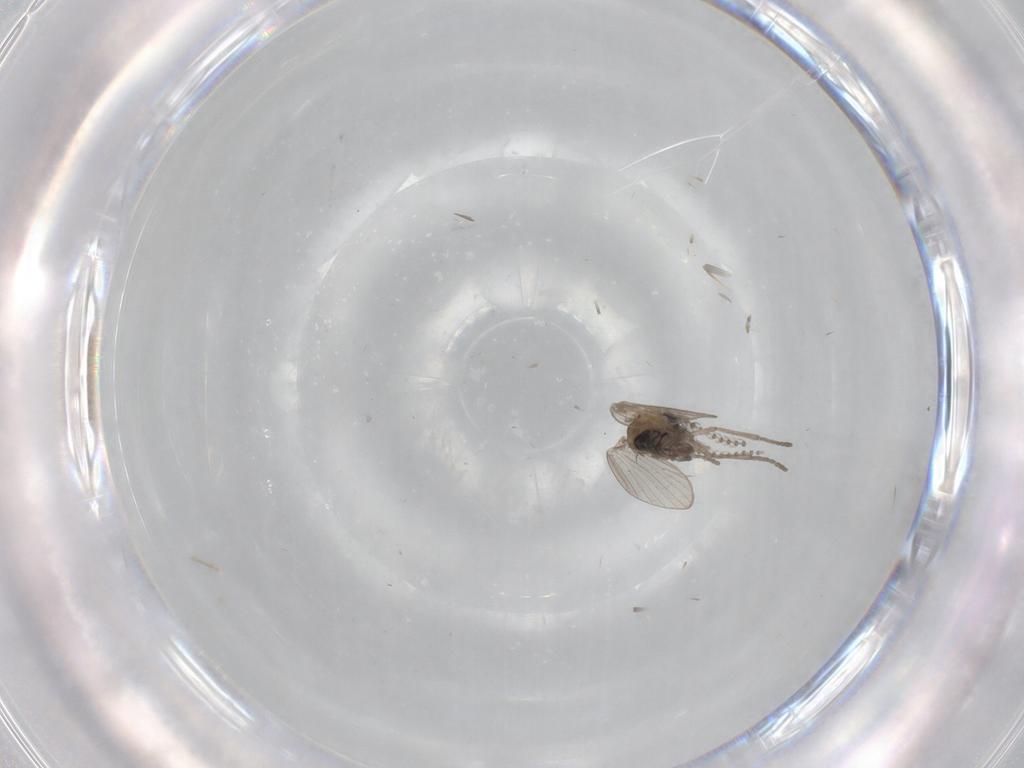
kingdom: Animalia
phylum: Arthropoda
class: Insecta
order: Diptera
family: Psychodidae
